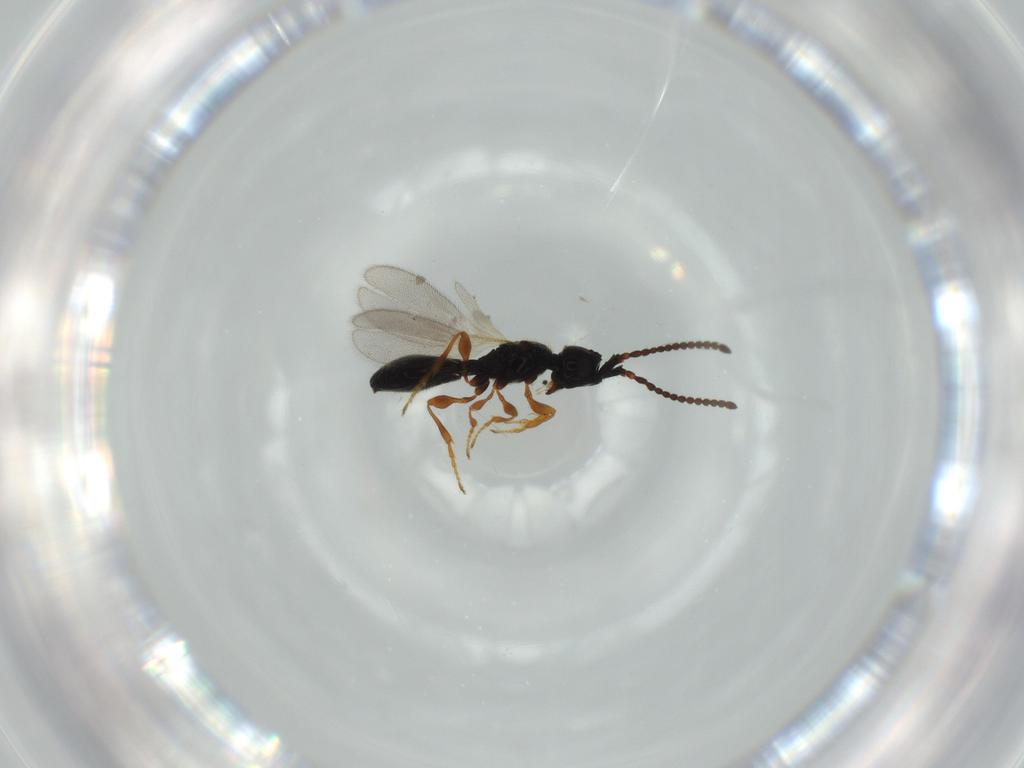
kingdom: Animalia
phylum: Arthropoda
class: Insecta
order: Hymenoptera
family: Diapriidae
